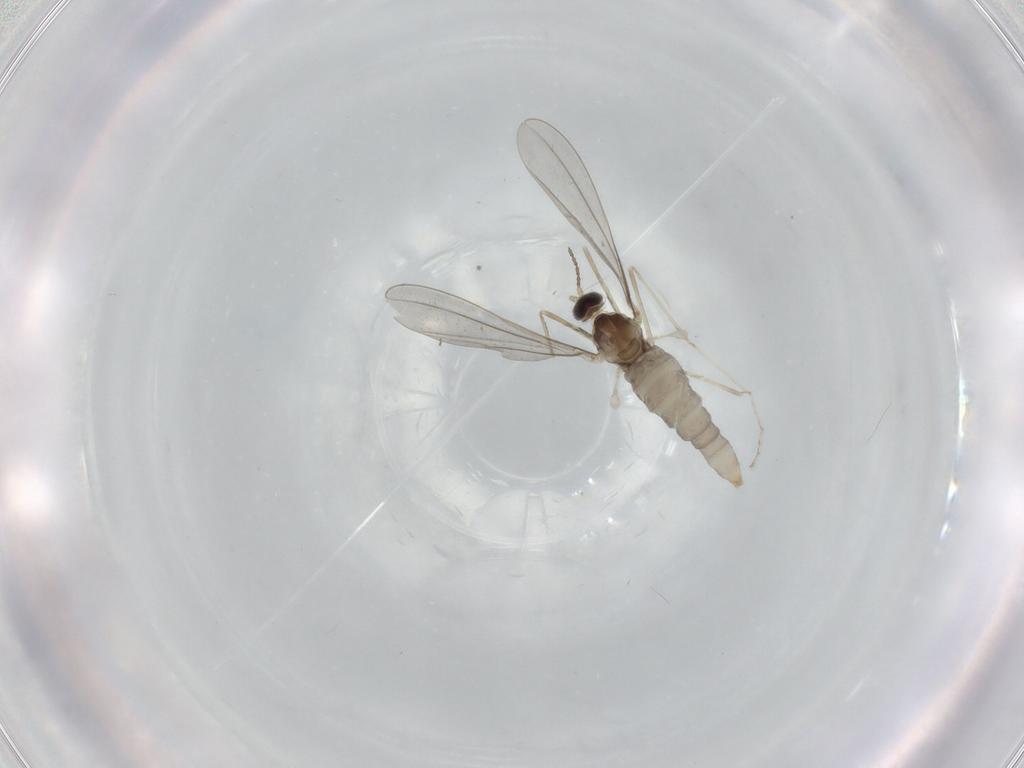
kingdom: Animalia
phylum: Arthropoda
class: Insecta
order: Diptera
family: Cecidomyiidae
